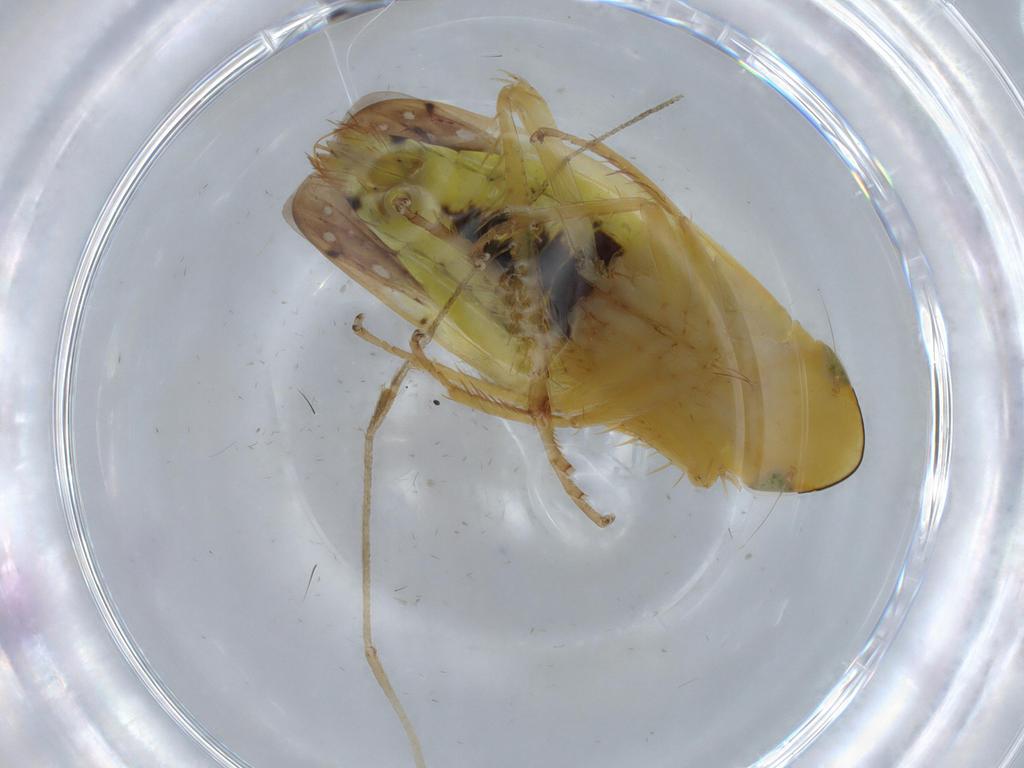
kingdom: Animalia
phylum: Arthropoda
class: Insecta
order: Hemiptera
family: Cicadellidae
